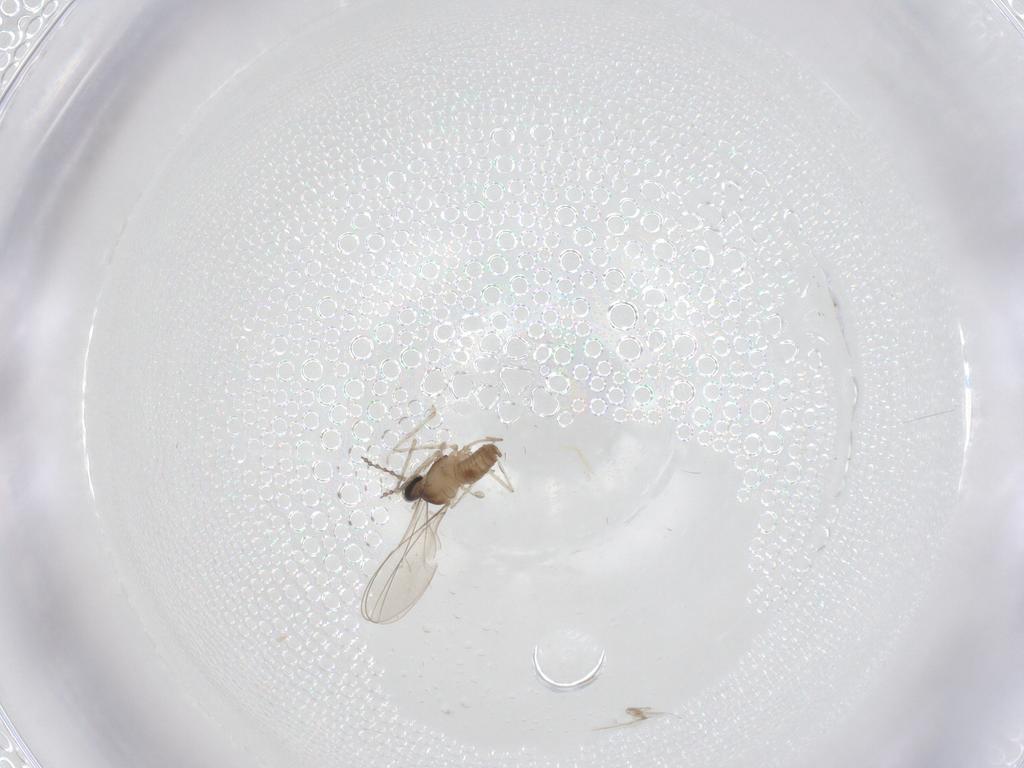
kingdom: Animalia
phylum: Arthropoda
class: Insecta
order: Diptera
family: Cecidomyiidae
